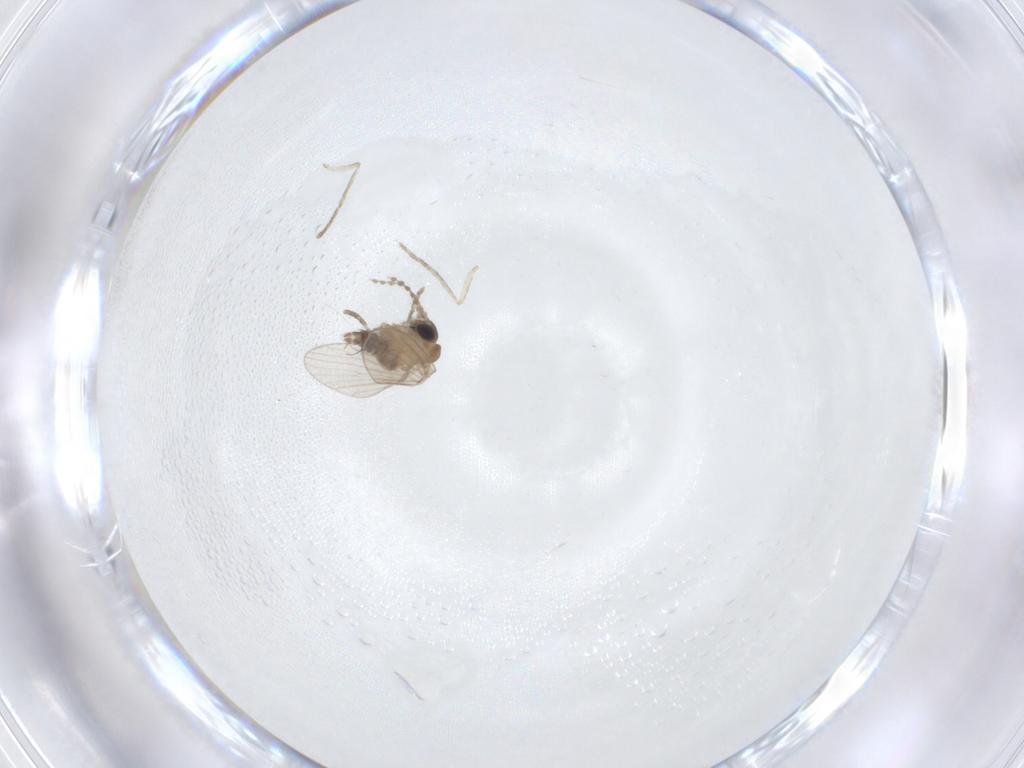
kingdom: Animalia
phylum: Arthropoda
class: Insecta
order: Diptera
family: Psychodidae
